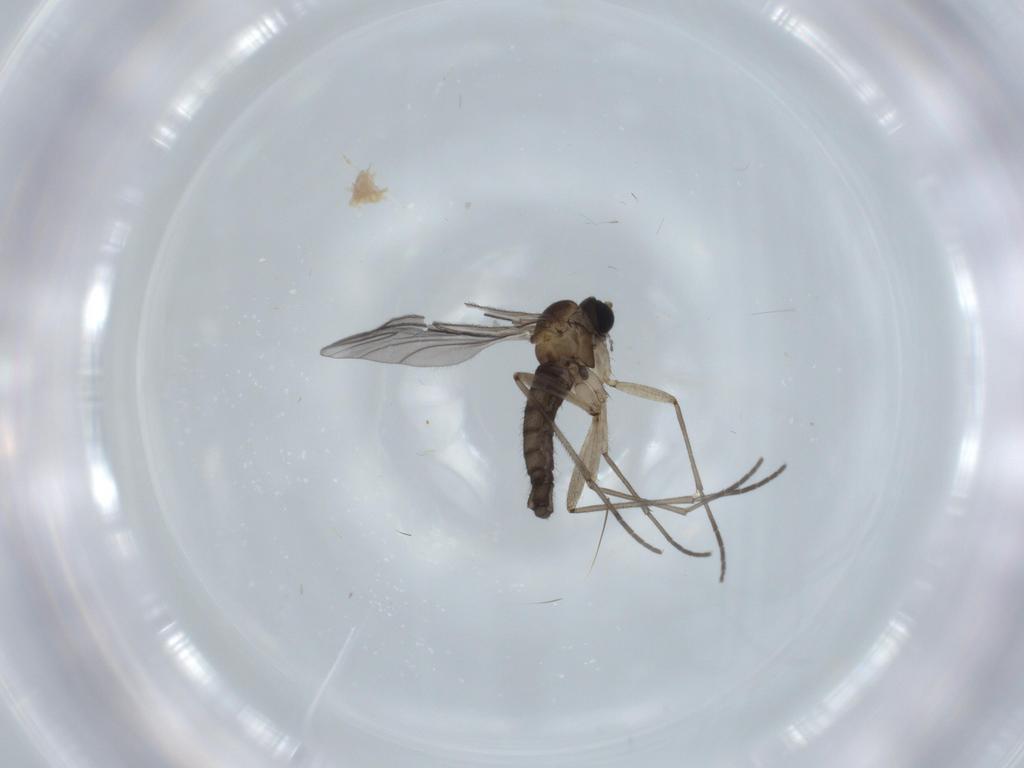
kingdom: Animalia
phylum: Arthropoda
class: Insecta
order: Diptera
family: Sciaridae
